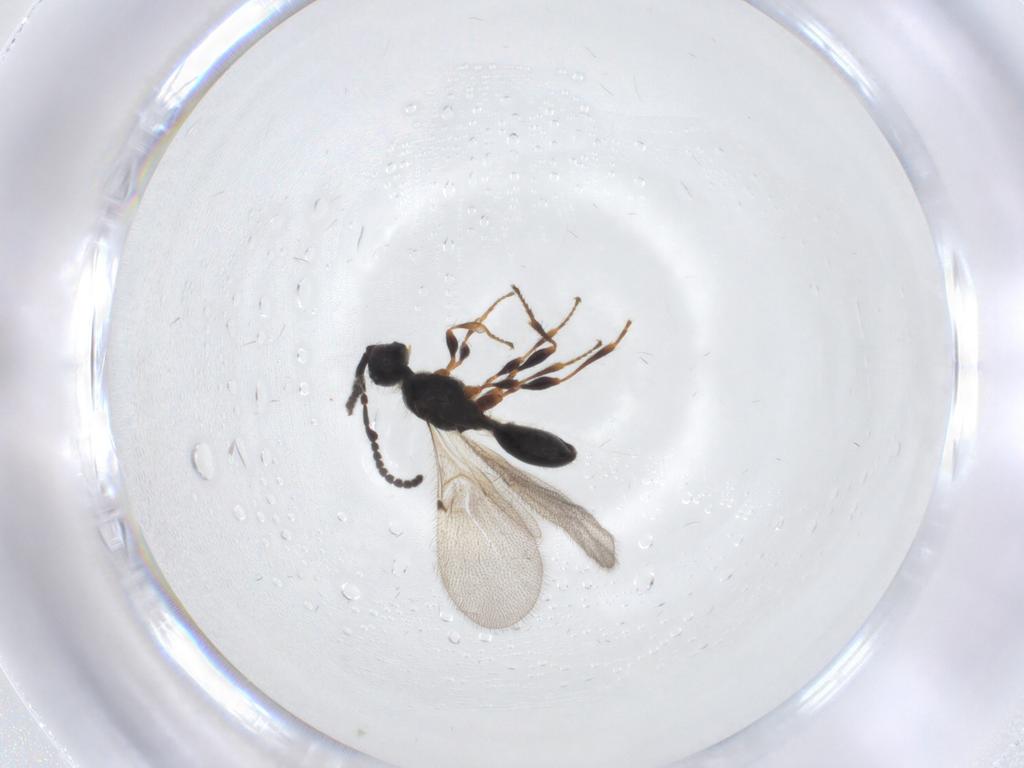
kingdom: Animalia
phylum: Arthropoda
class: Insecta
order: Hymenoptera
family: Diapriidae
